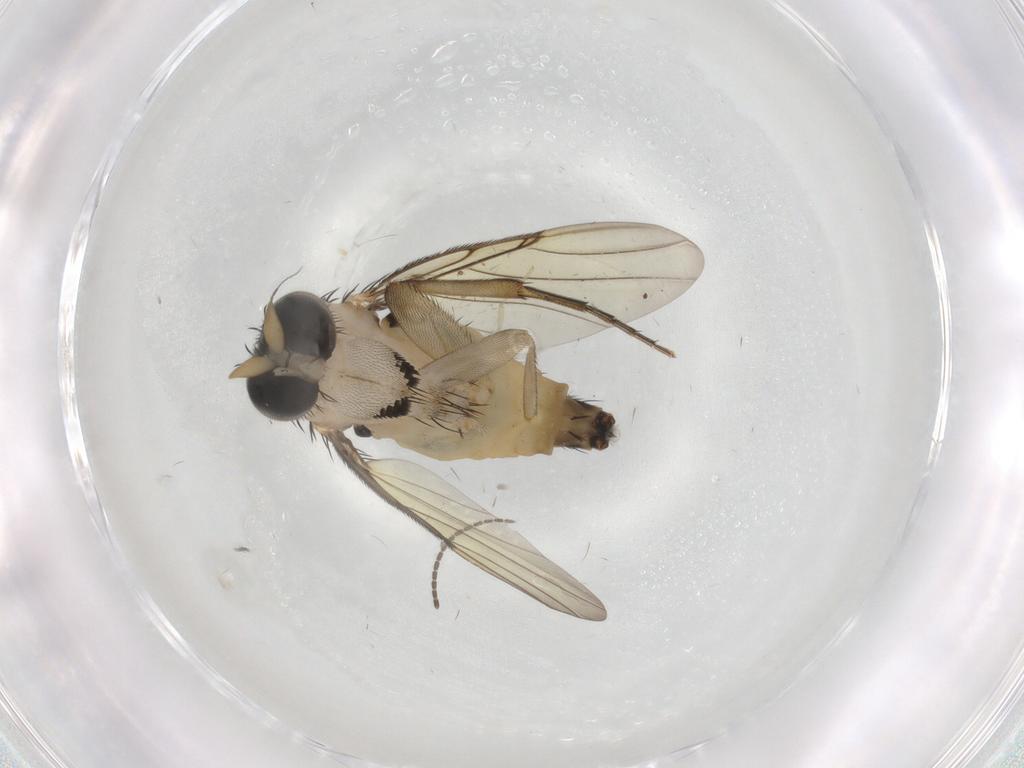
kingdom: Animalia
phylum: Arthropoda
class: Insecta
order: Diptera
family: Phoridae
